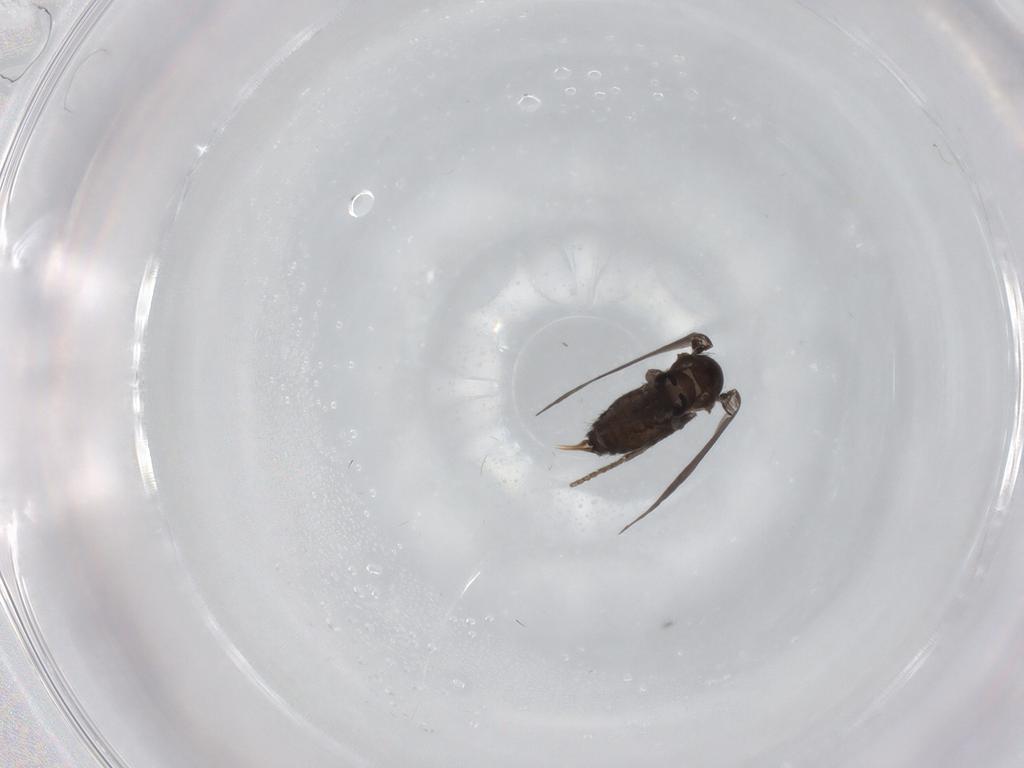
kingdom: Animalia
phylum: Arthropoda
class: Insecta
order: Diptera
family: Psychodidae
